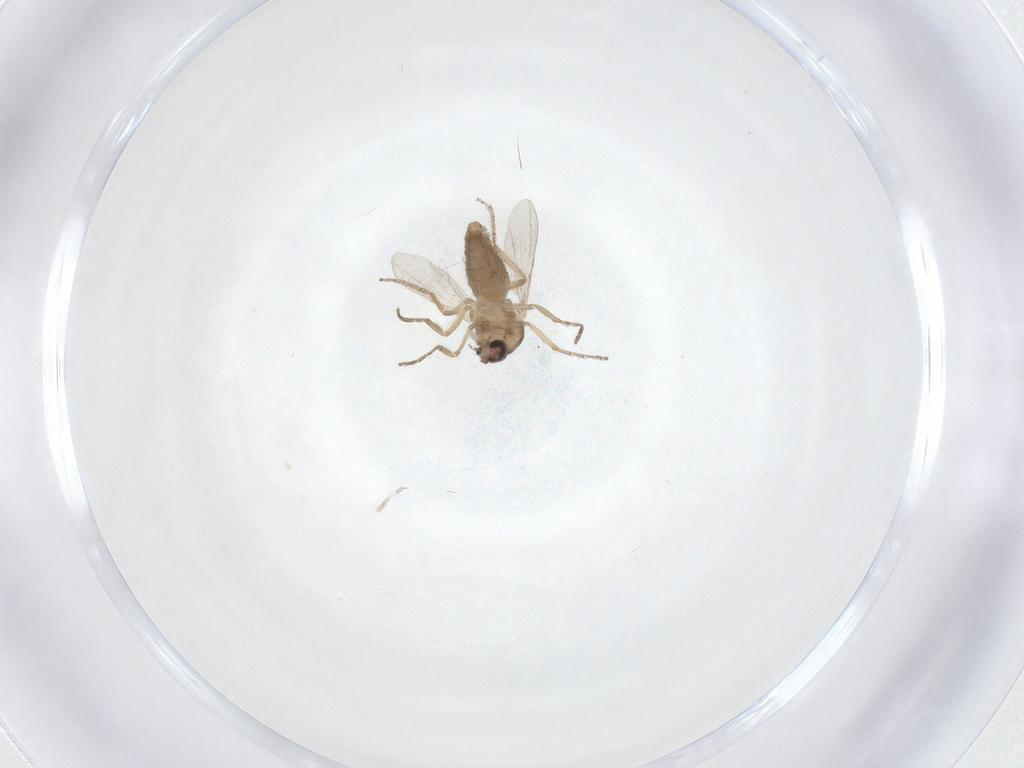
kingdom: Animalia
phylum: Arthropoda
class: Insecta
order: Diptera
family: Ceratopogonidae
